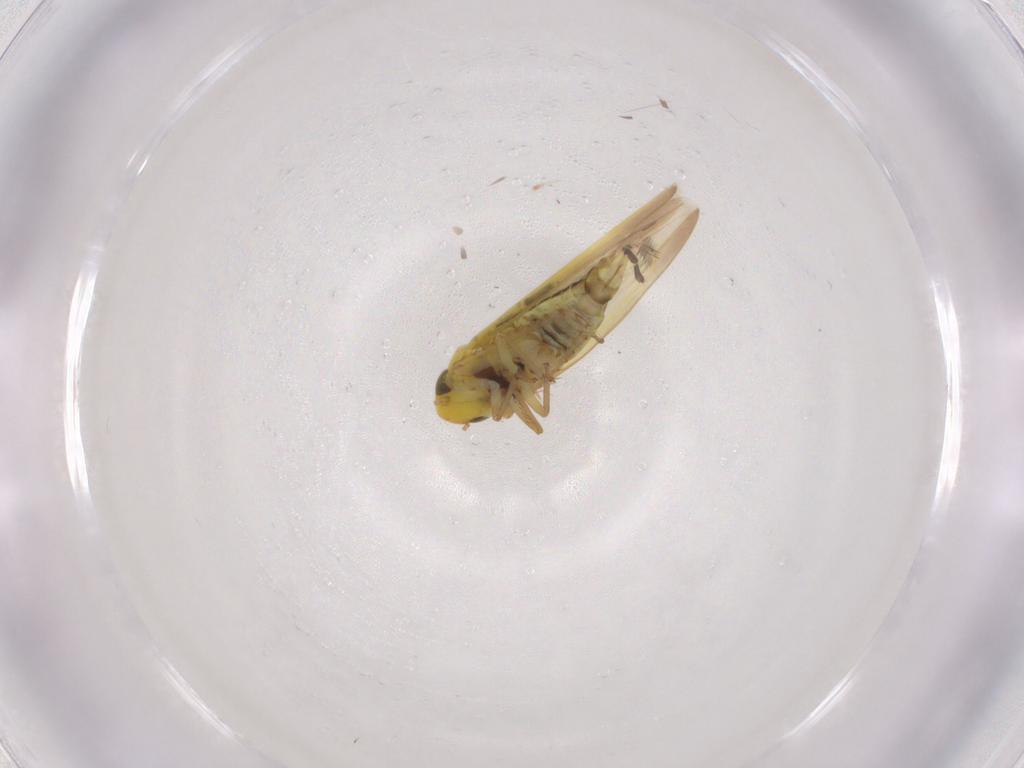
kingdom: Animalia
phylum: Arthropoda
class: Insecta
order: Hemiptera
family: Cicadellidae
